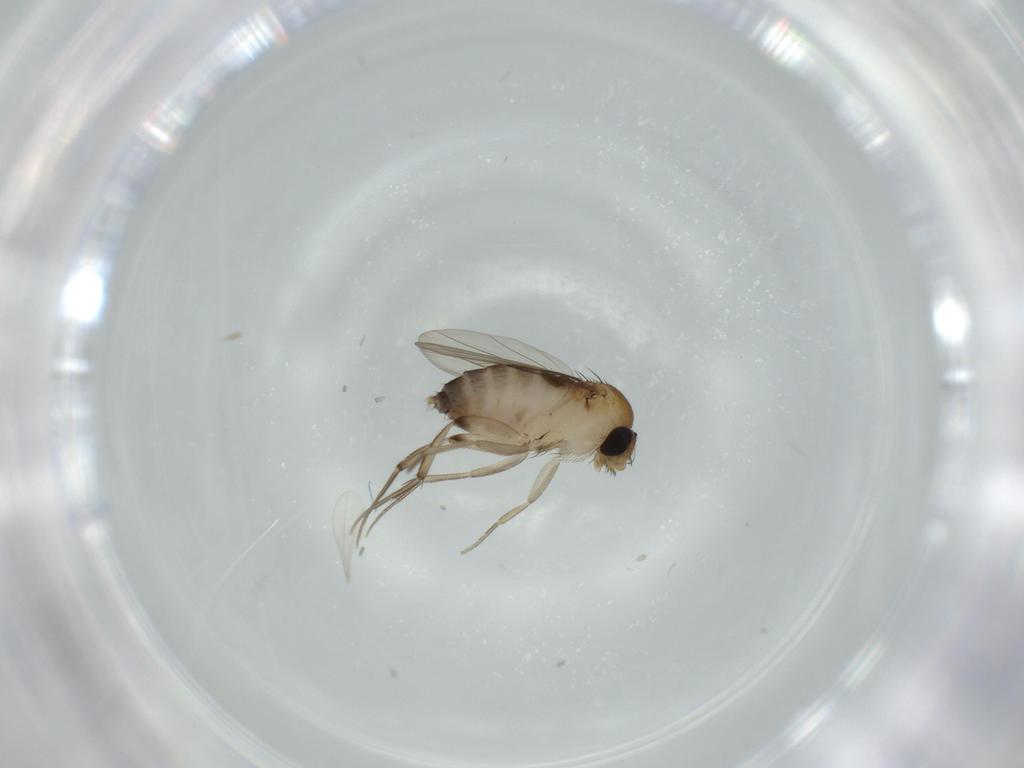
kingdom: Animalia
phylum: Arthropoda
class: Insecta
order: Diptera
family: Phoridae
